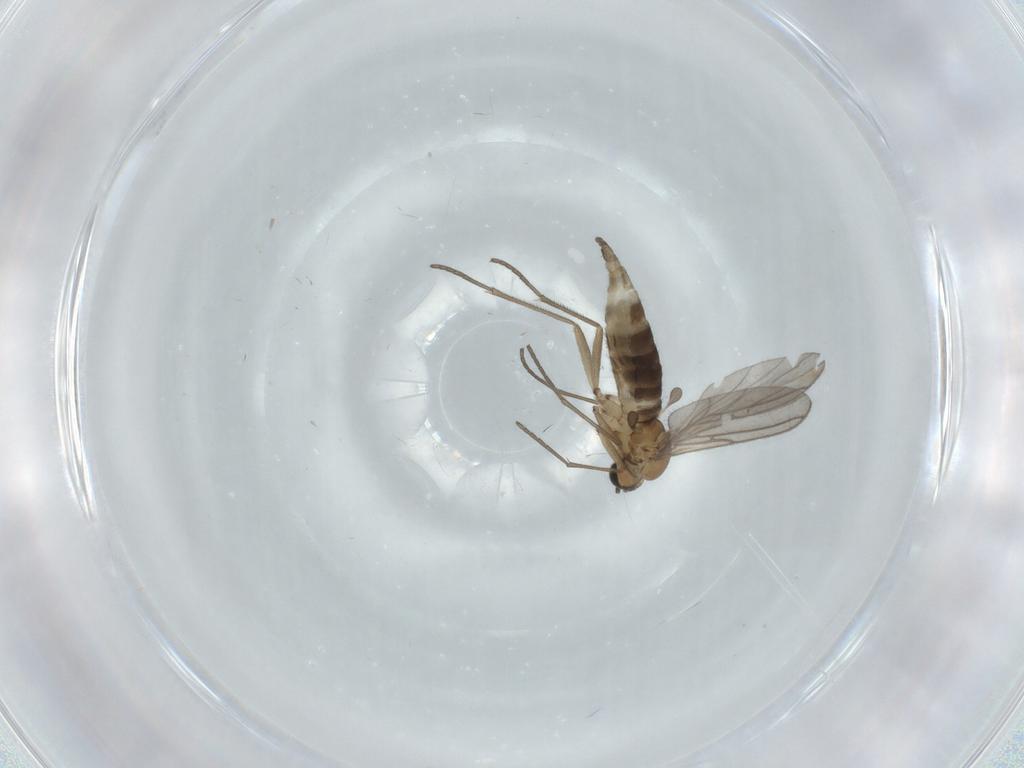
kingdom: Animalia
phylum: Arthropoda
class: Insecta
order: Diptera
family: Sciaridae
